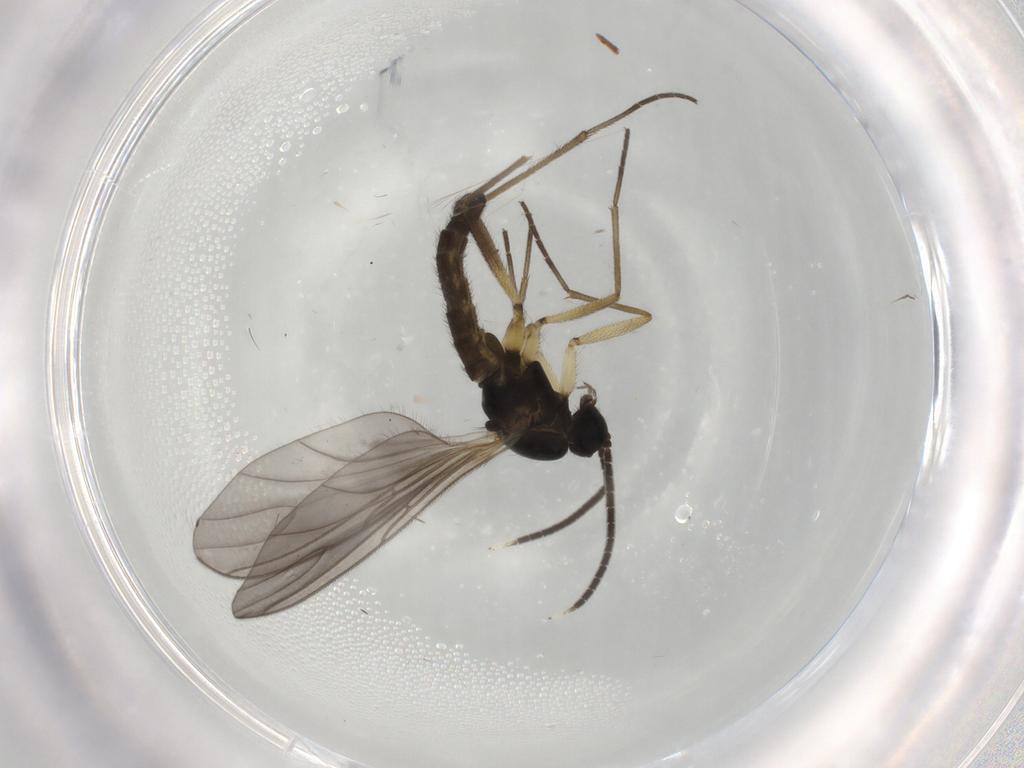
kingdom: Animalia
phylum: Arthropoda
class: Insecta
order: Diptera
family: Sciaridae
